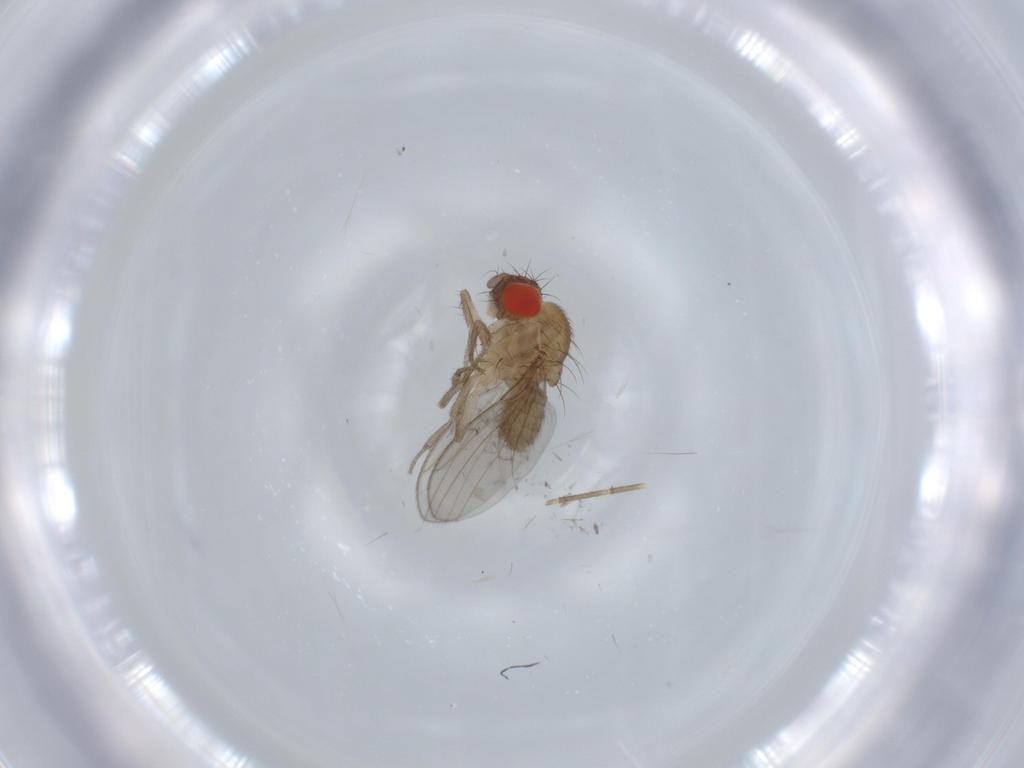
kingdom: Animalia
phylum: Arthropoda
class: Insecta
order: Diptera
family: Drosophilidae
